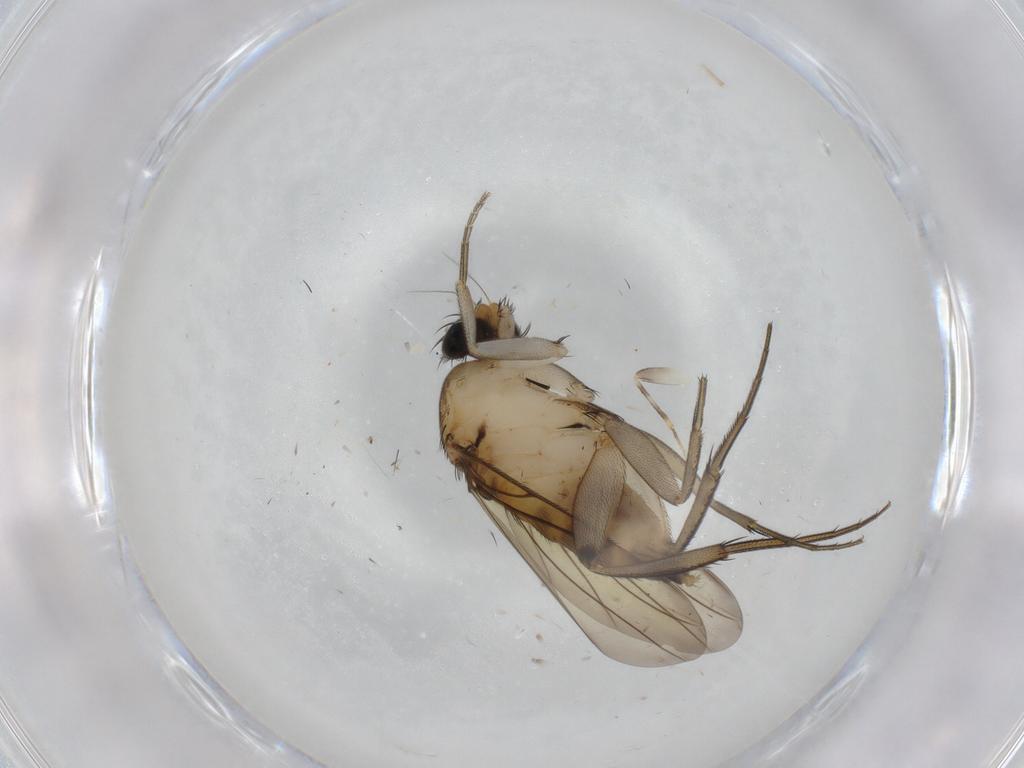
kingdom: Animalia
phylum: Arthropoda
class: Insecta
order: Diptera
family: Phoridae
